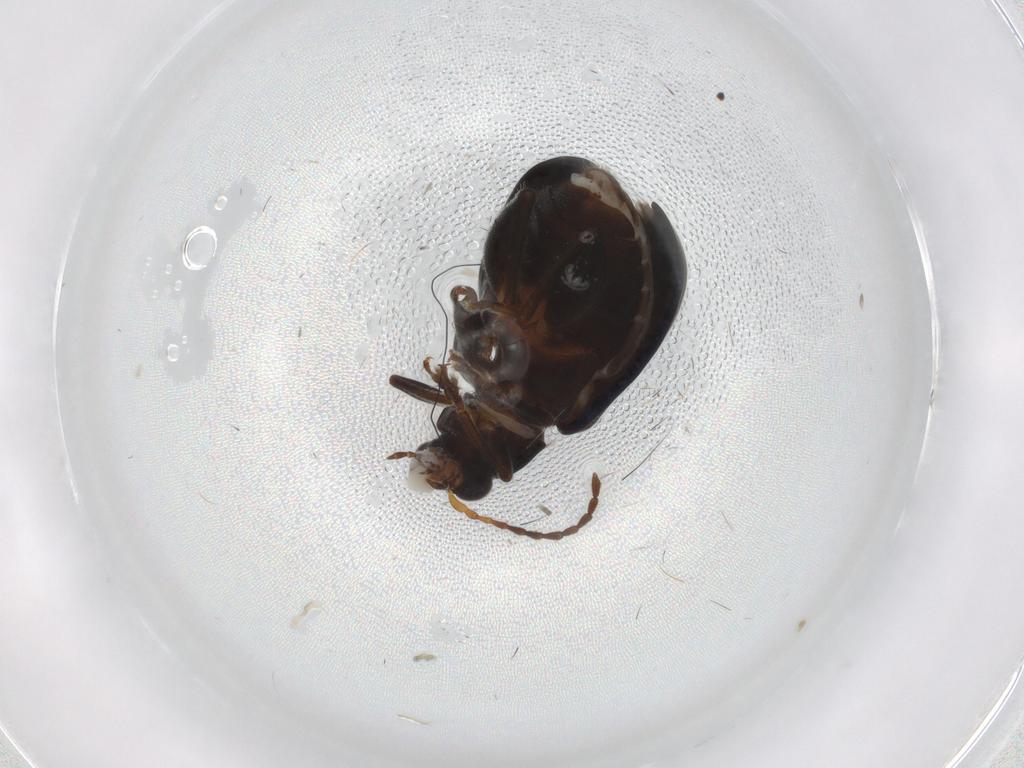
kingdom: Animalia
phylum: Arthropoda
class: Insecta
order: Coleoptera
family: Chrysomelidae
